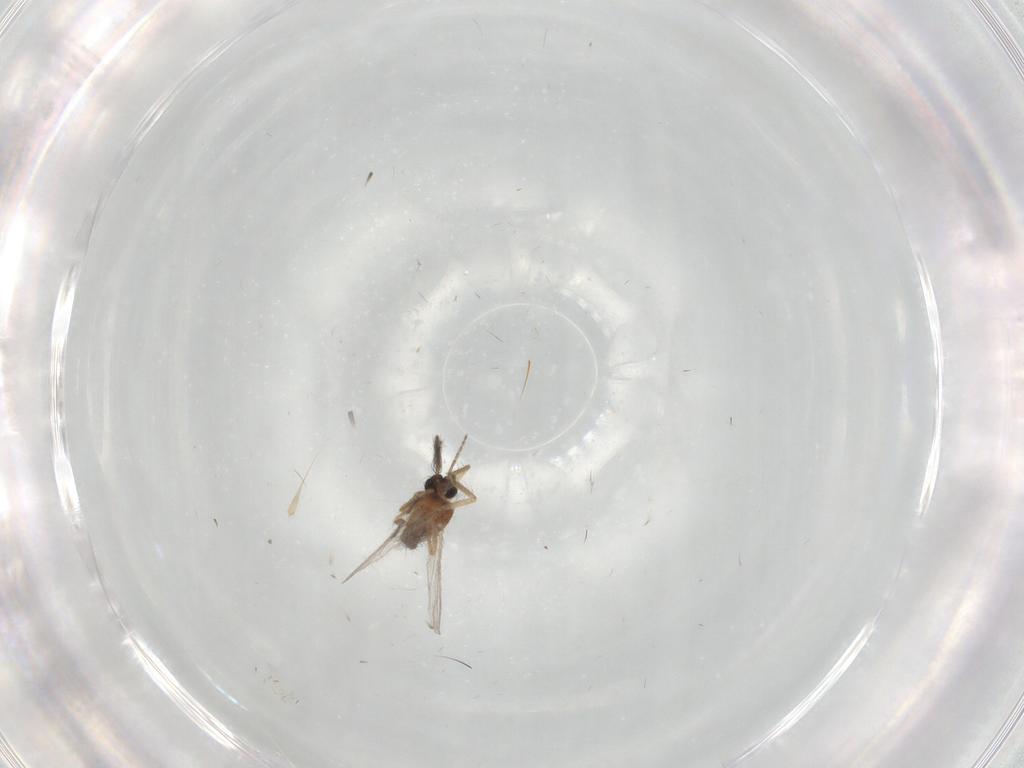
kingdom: Animalia
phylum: Arthropoda
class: Insecta
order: Diptera
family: Ceratopogonidae
